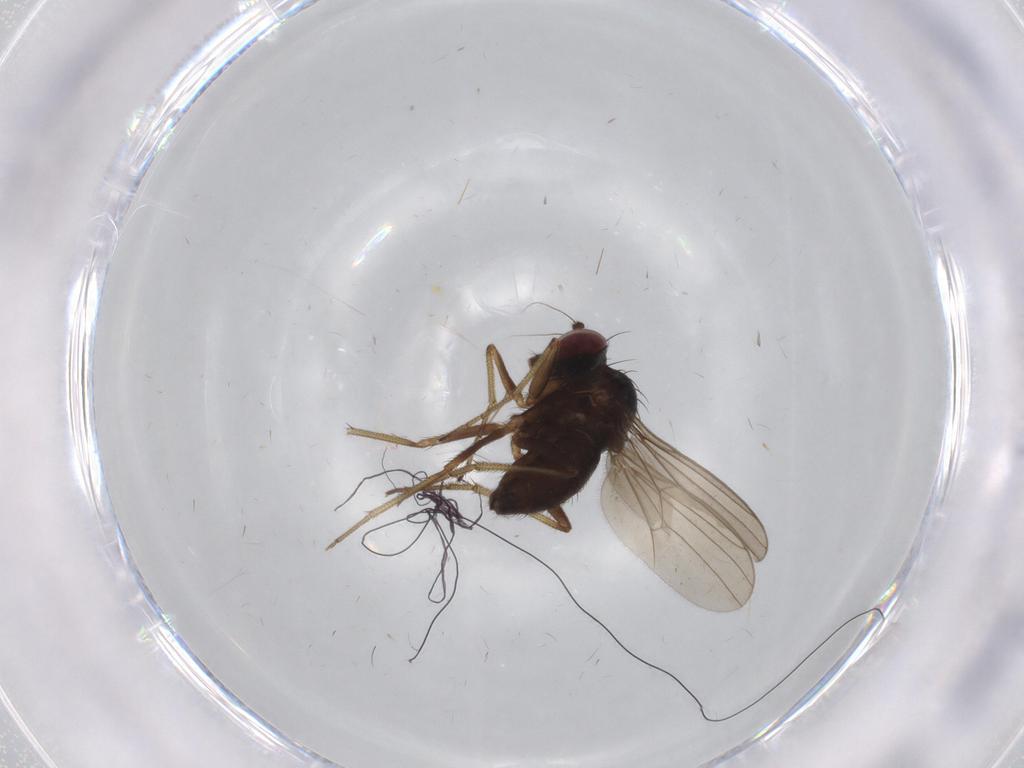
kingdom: Animalia
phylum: Arthropoda
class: Insecta
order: Diptera
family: Dolichopodidae
